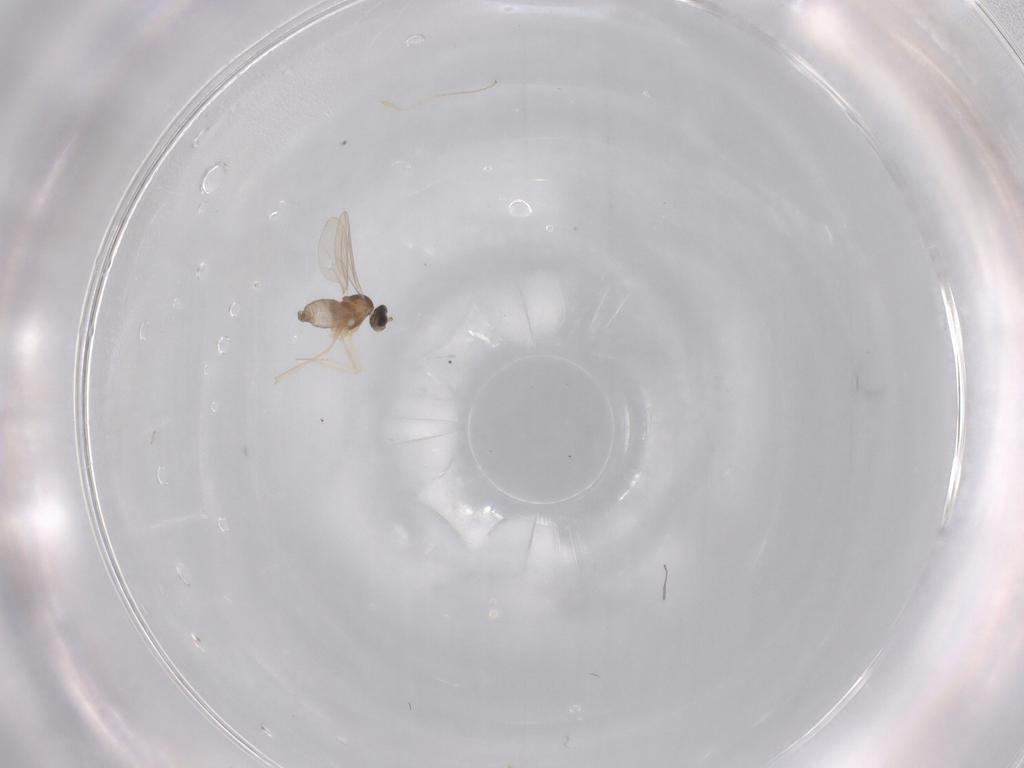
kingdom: Animalia
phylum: Arthropoda
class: Insecta
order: Diptera
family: Cecidomyiidae
